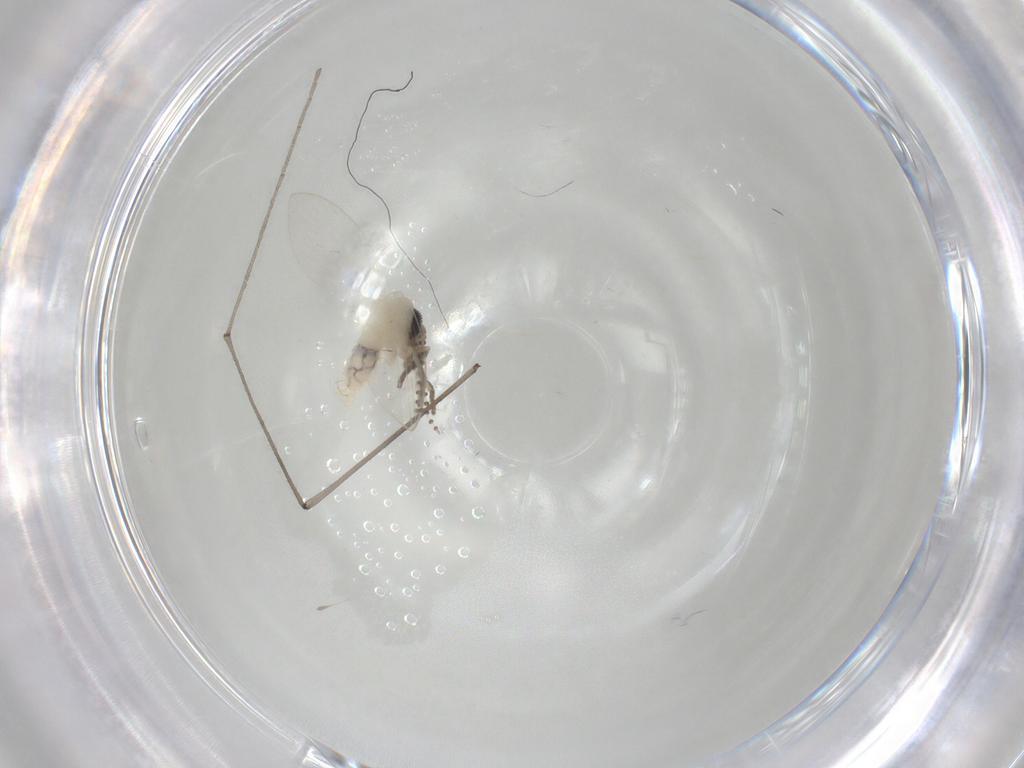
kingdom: Animalia
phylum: Arthropoda
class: Insecta
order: Diptera
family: Psychodidae
